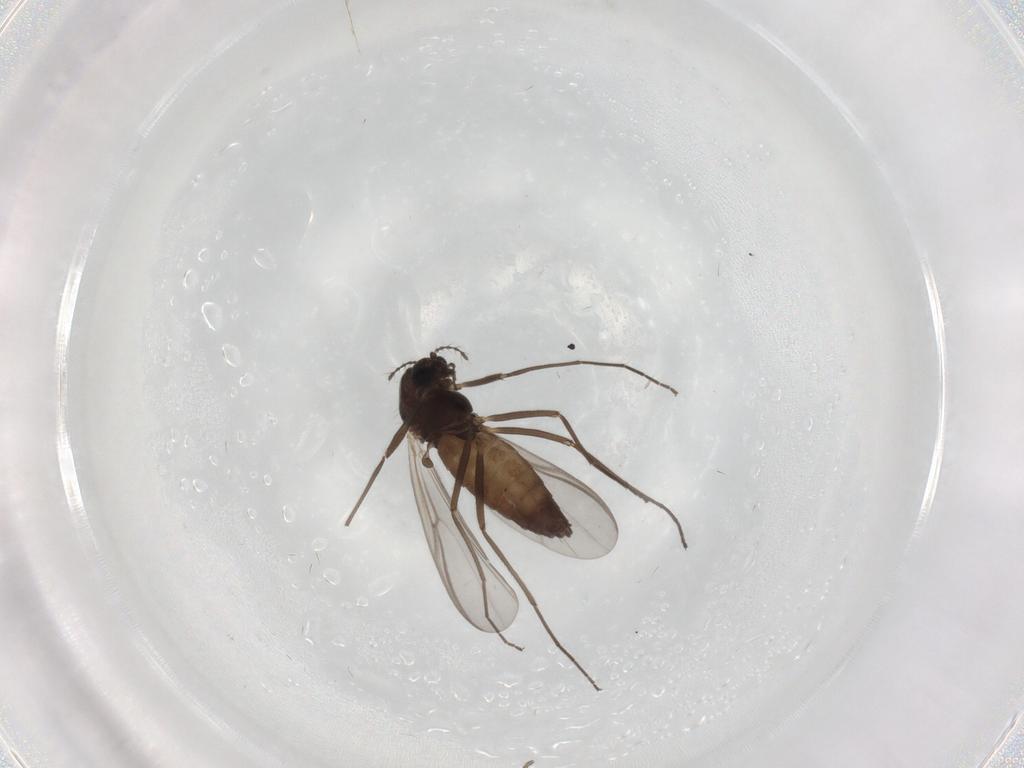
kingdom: Animalia
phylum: Arthropoda
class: Insecta
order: Diptera
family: Chironomidae
